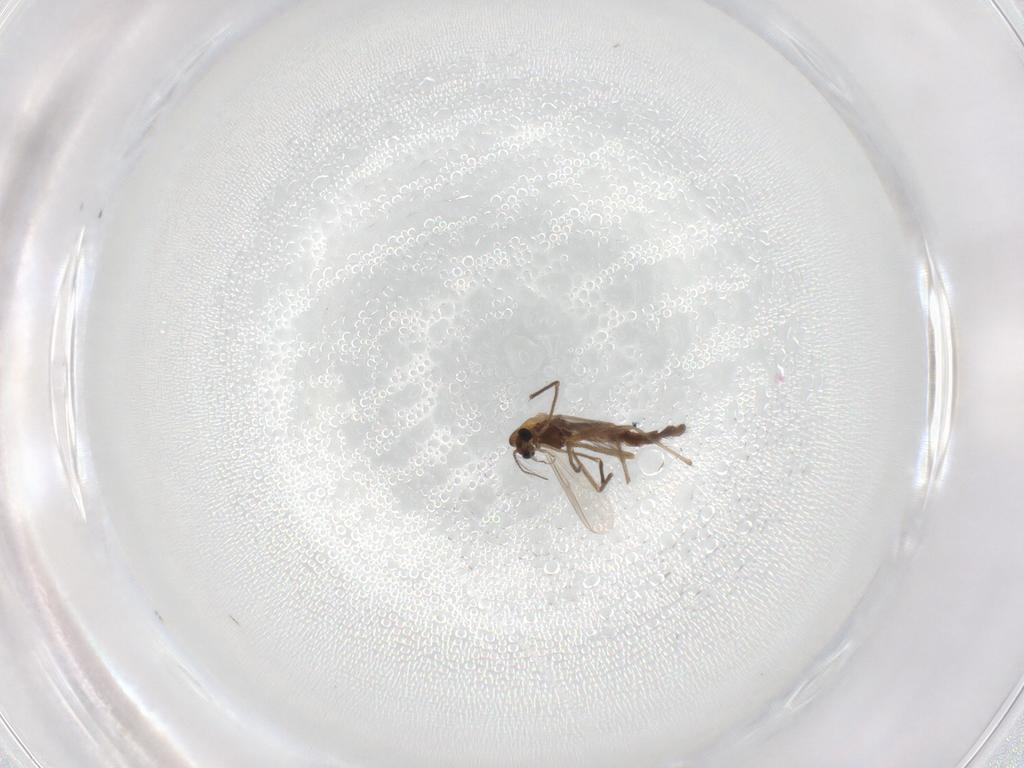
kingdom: Animalia
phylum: Arthropoda
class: Insecta
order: Diptera
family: Chironomidae
